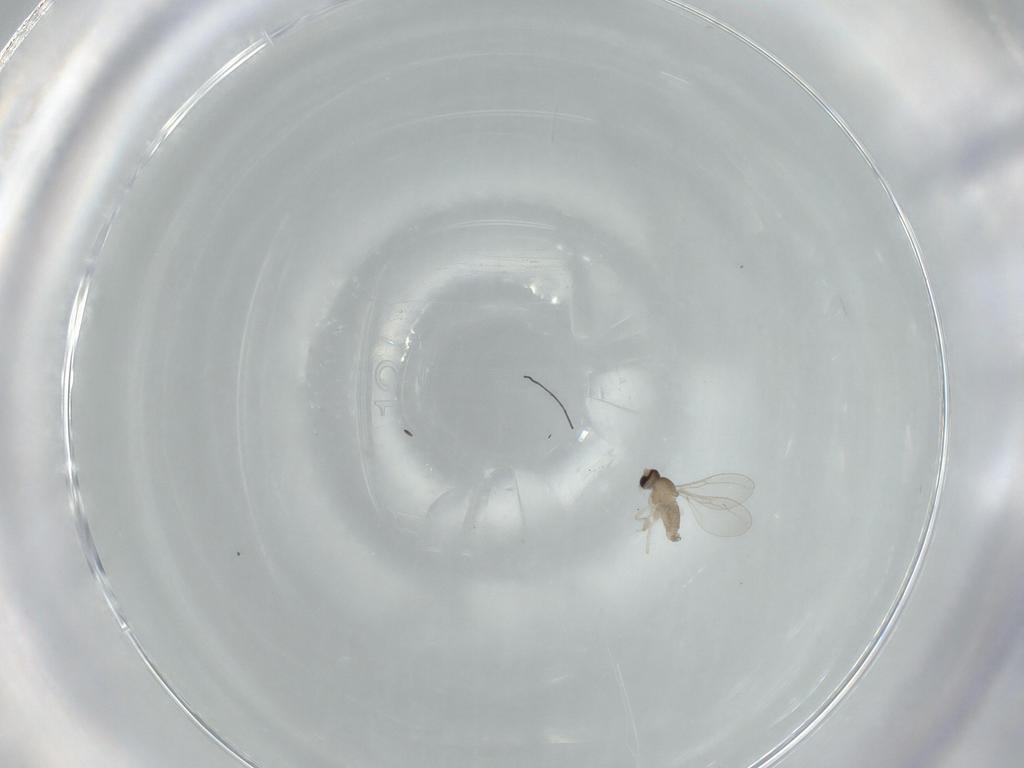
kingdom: Animalia
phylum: Arthropoda
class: Insecta
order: Diptera
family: Cecidomyiidae
